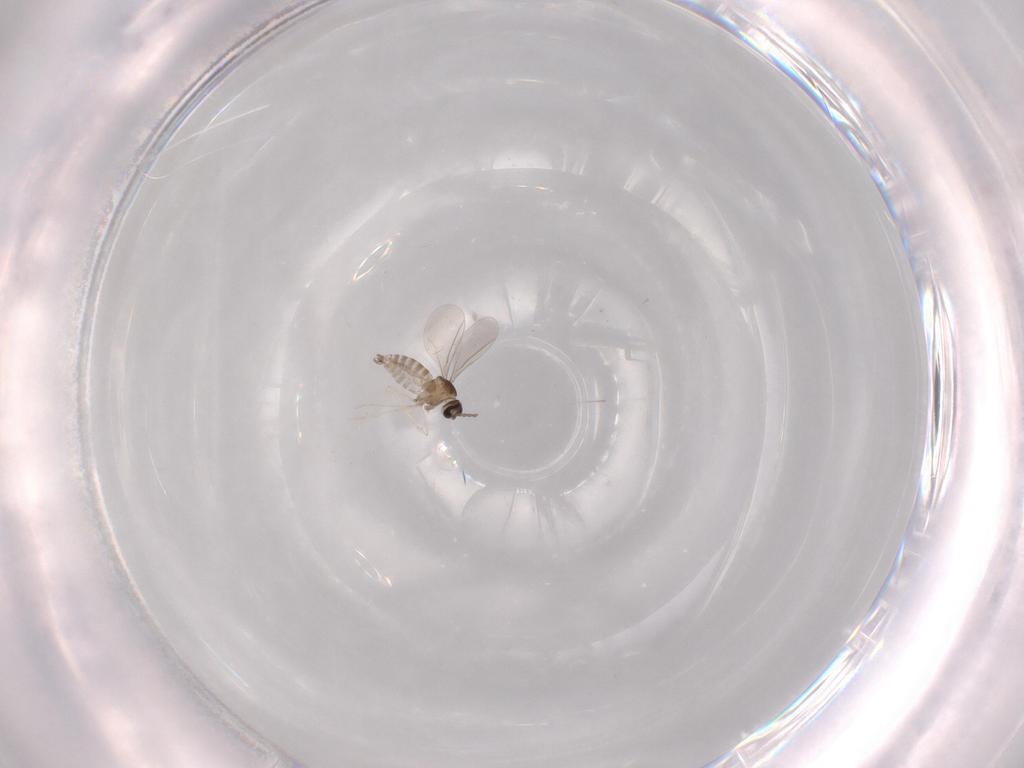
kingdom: Animalia
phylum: Arthropoda
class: Insecta
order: Diptera
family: Cecidomyiidae
